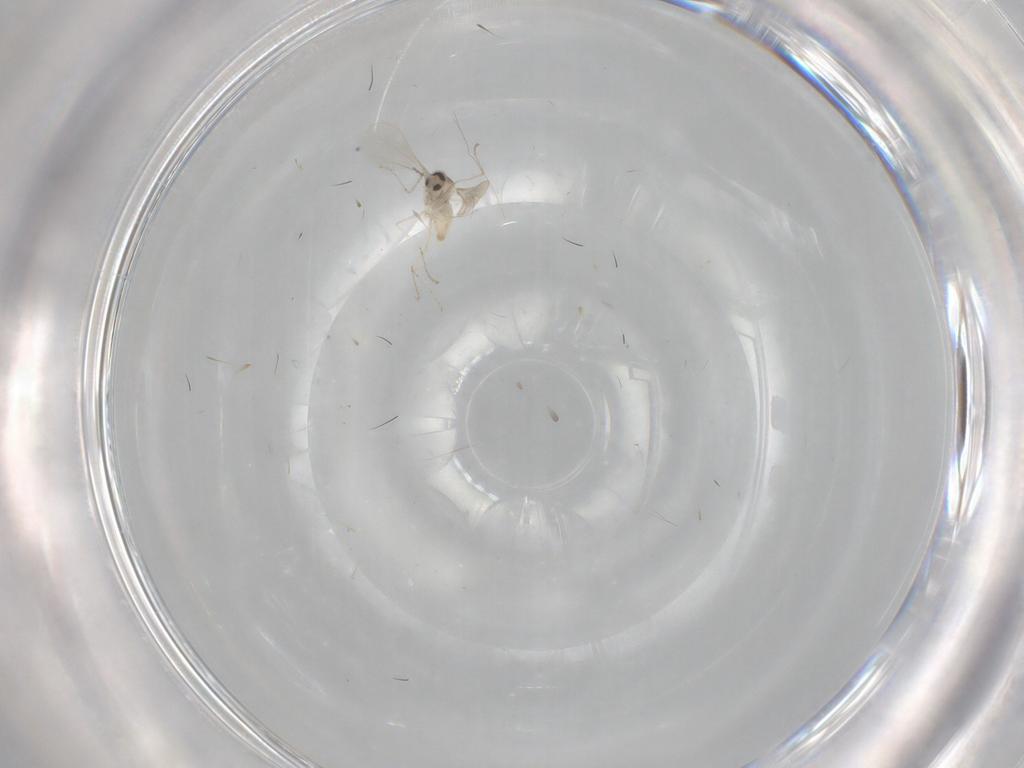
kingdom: Animalia
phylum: Arthropoda
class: Insecta
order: Diptera
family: Cecidomyiidae
